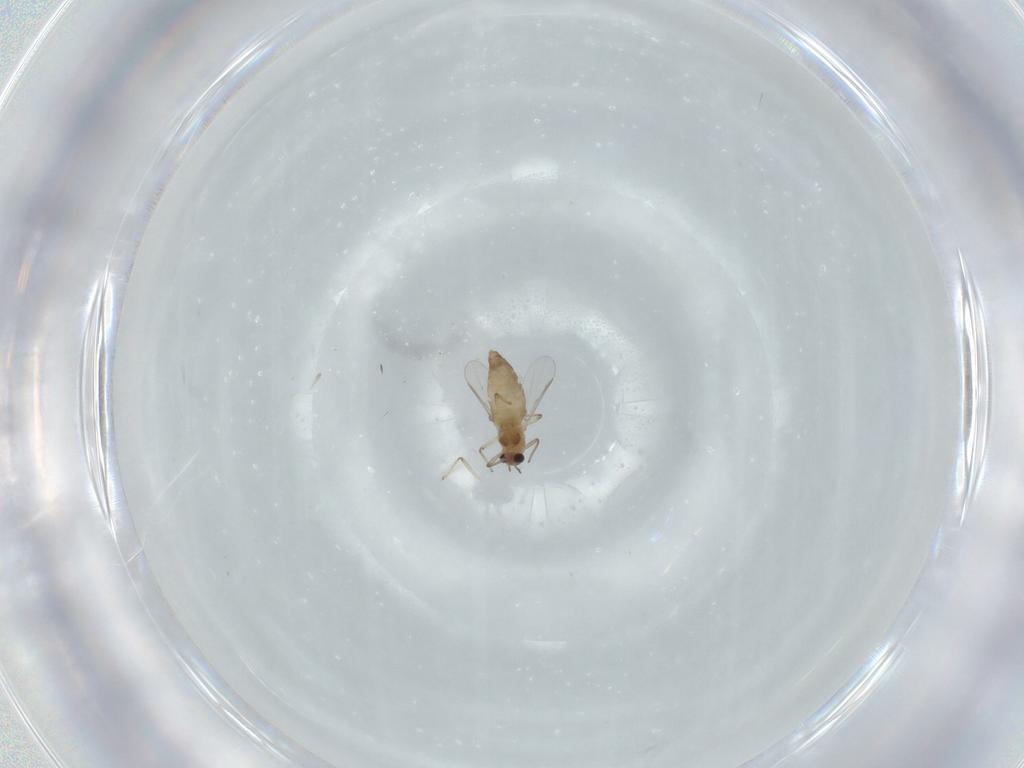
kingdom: Animalia
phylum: Arthropoda
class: Insecta
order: Diptera
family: Chironomidae
